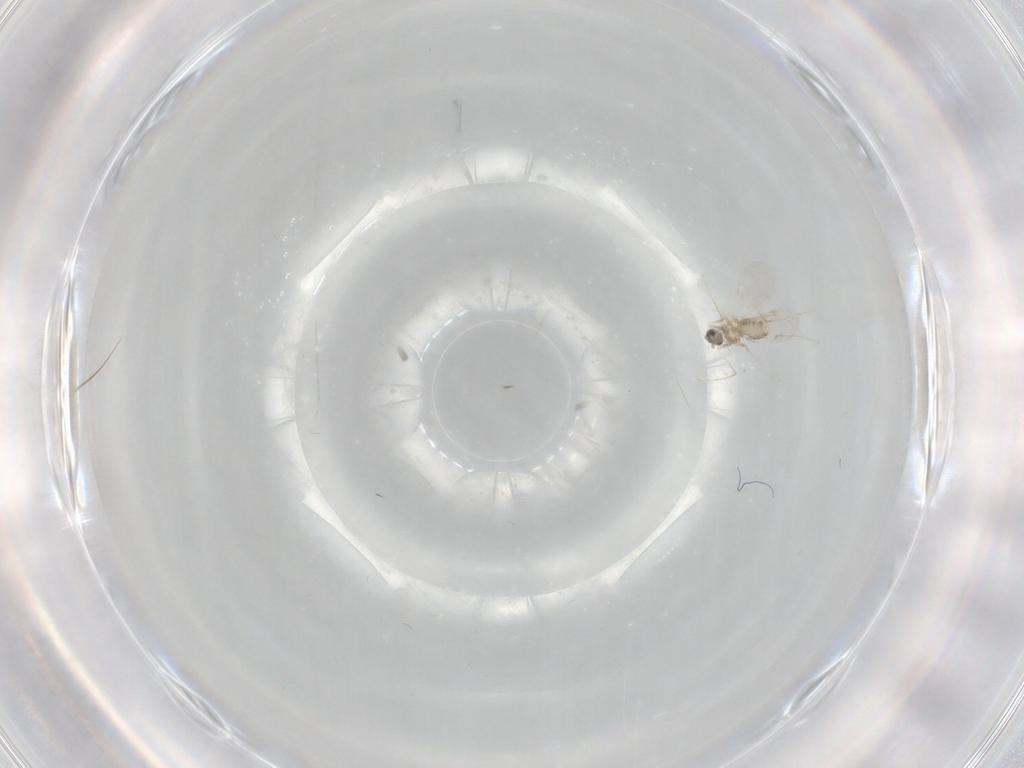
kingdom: Animalia
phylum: Arthropoda
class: Insecta
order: Diptera
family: Cecidomyiidae
